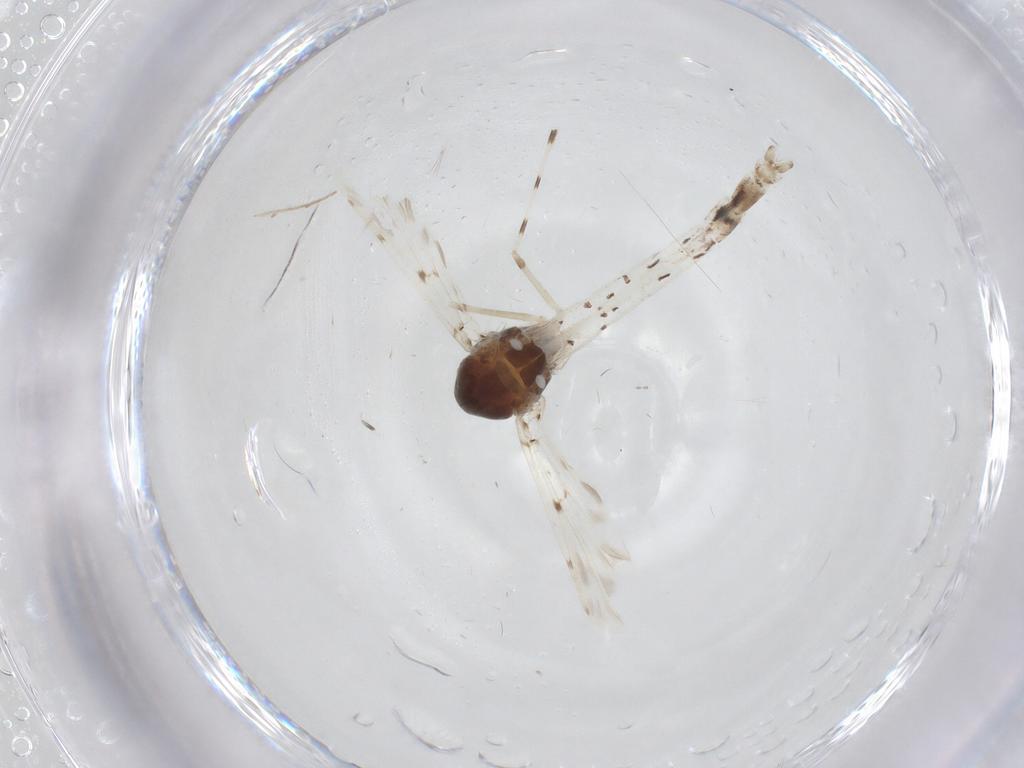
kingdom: Animalia
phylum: Arthropoda
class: Insecta
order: Diptera
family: Chironomidae
